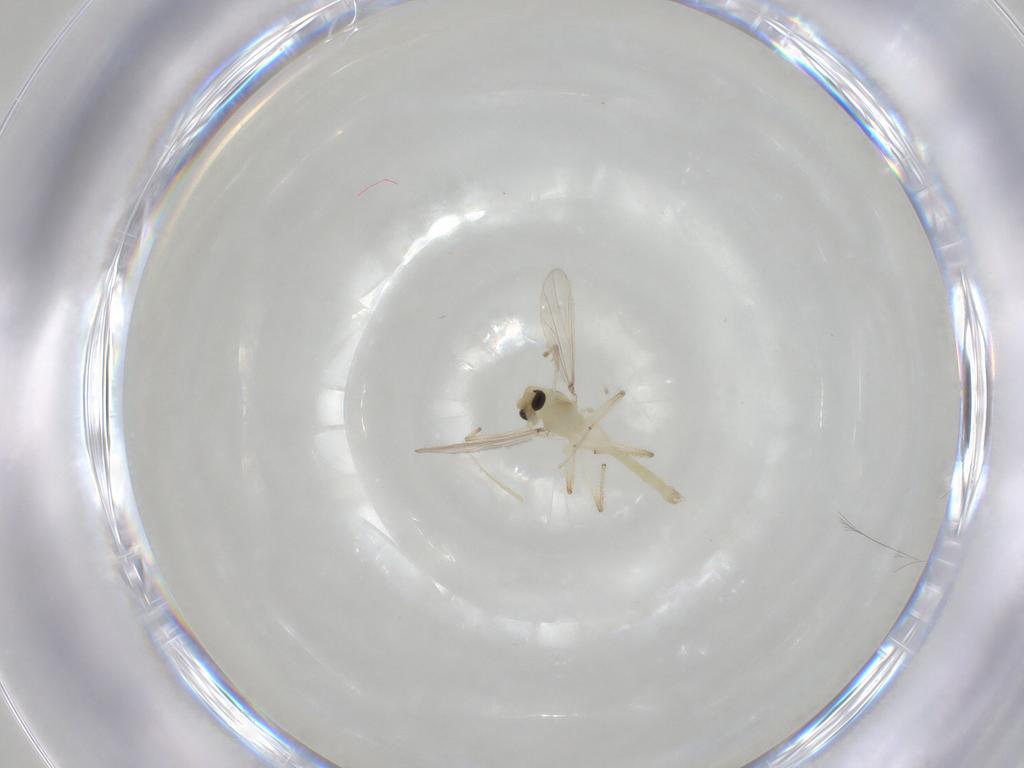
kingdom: Animalia
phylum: Arthropoda
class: Insecta
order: Diptera
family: Chironomidae
